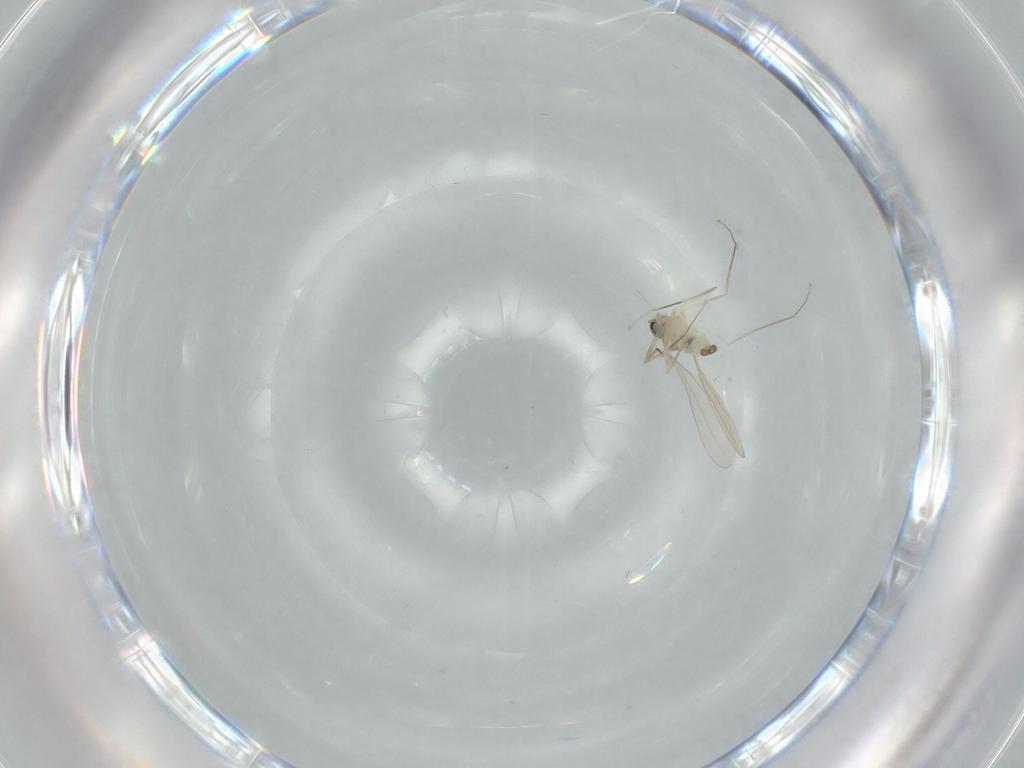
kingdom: Animalia
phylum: Arthropoda
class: Insecta
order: Diptera
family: Cecidomyiidae
